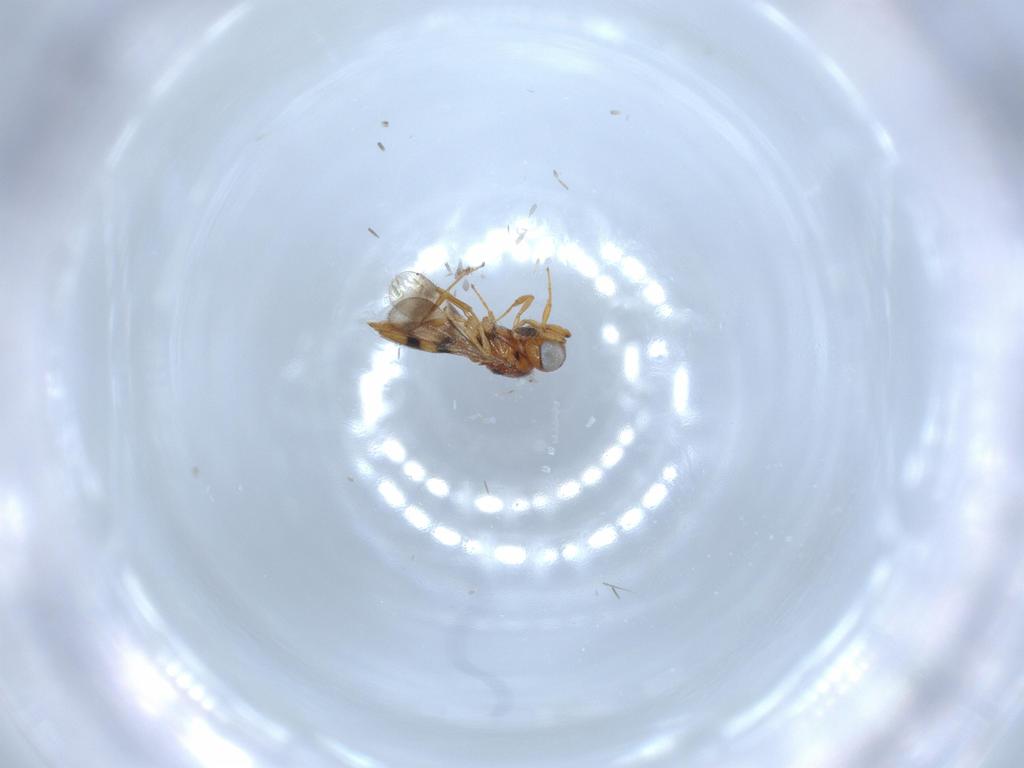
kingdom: Animalia
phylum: Arthropoda
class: Insecta
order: Hymenoptera
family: Scelionidae
